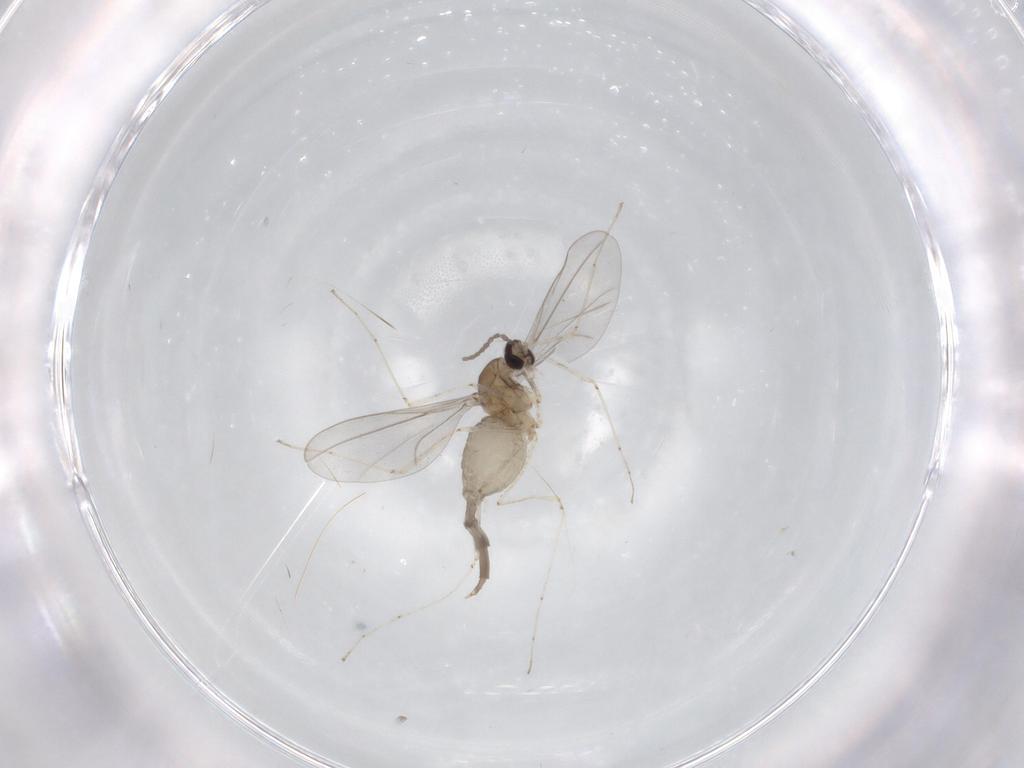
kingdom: Animalia
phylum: Arthropoda
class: Insecta
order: Diptera
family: Cecidomyiidae
